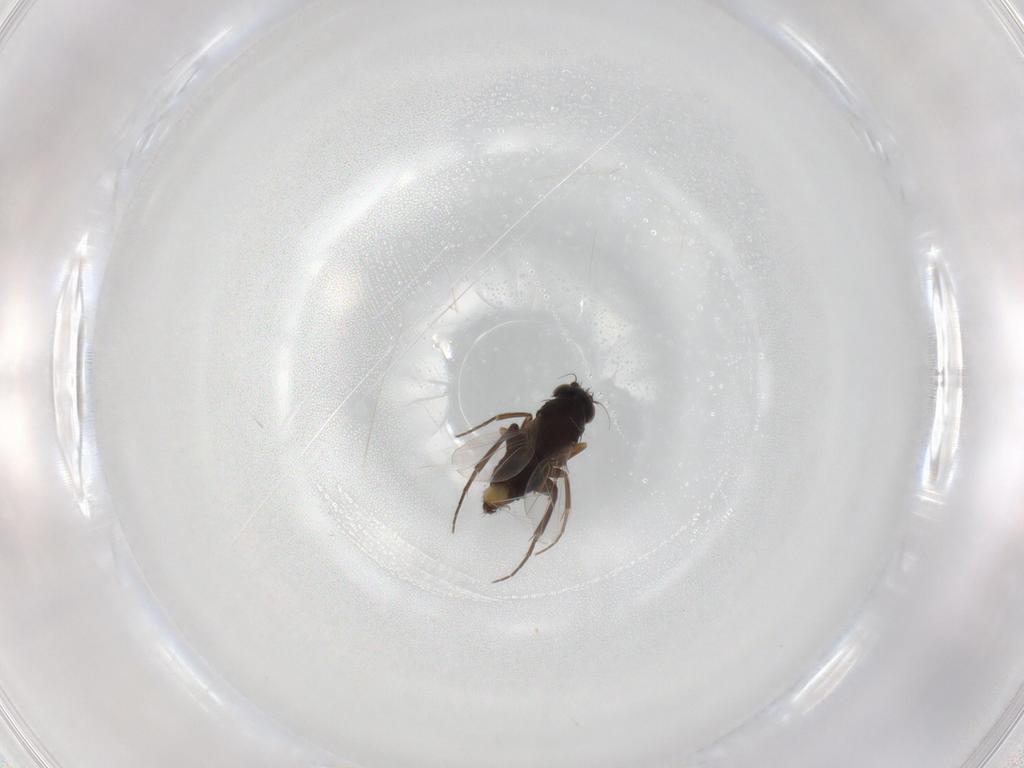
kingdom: Animalia
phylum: Arthropoda
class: Insecta
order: Diptera
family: Phoridae
